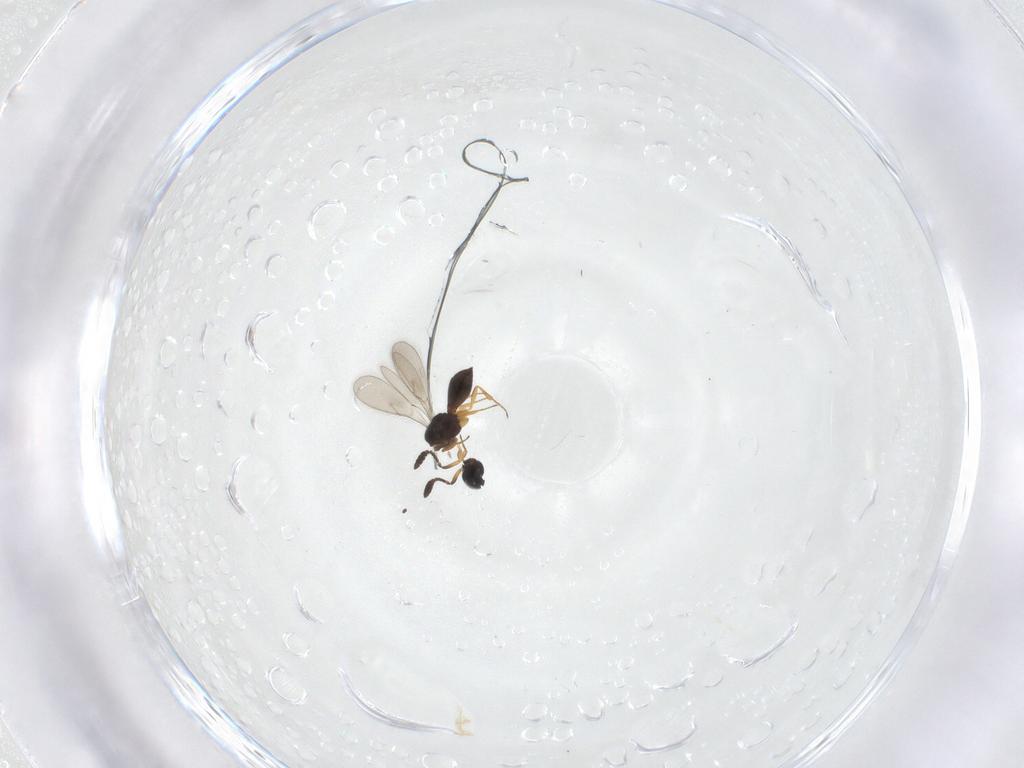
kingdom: Animalia
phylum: Arthropoda
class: Insecta
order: Hymenoptera
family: Scelionidae
